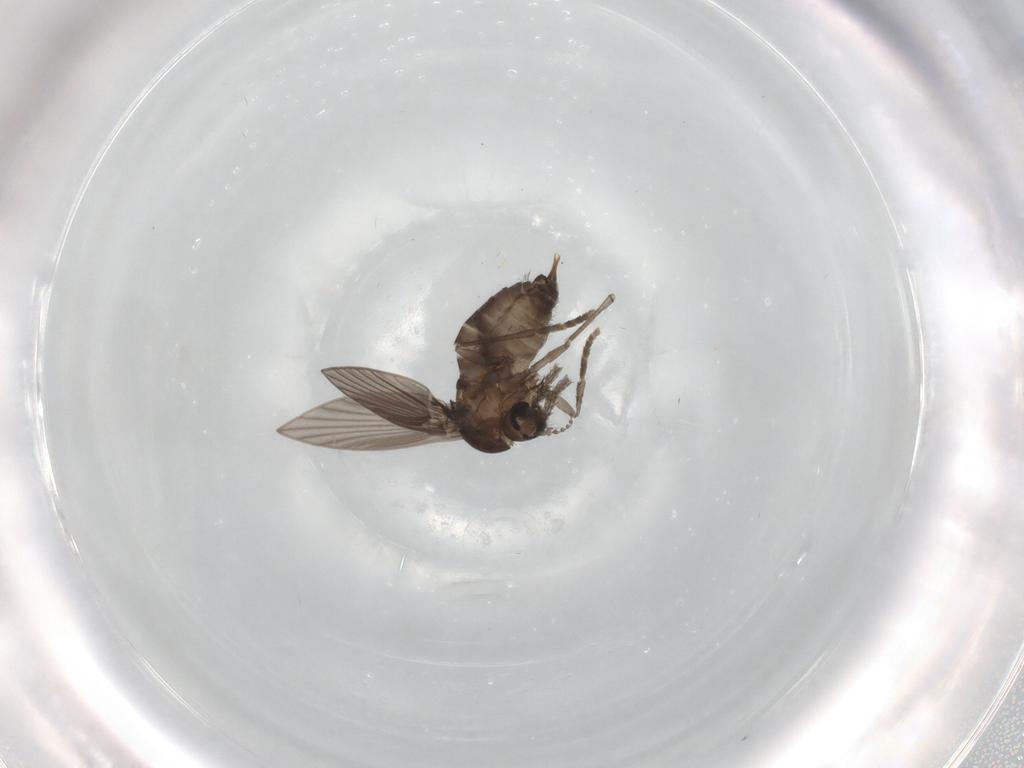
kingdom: Animalia
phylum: Arthropoda
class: Insecta
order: Diptera
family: Psychodidae
